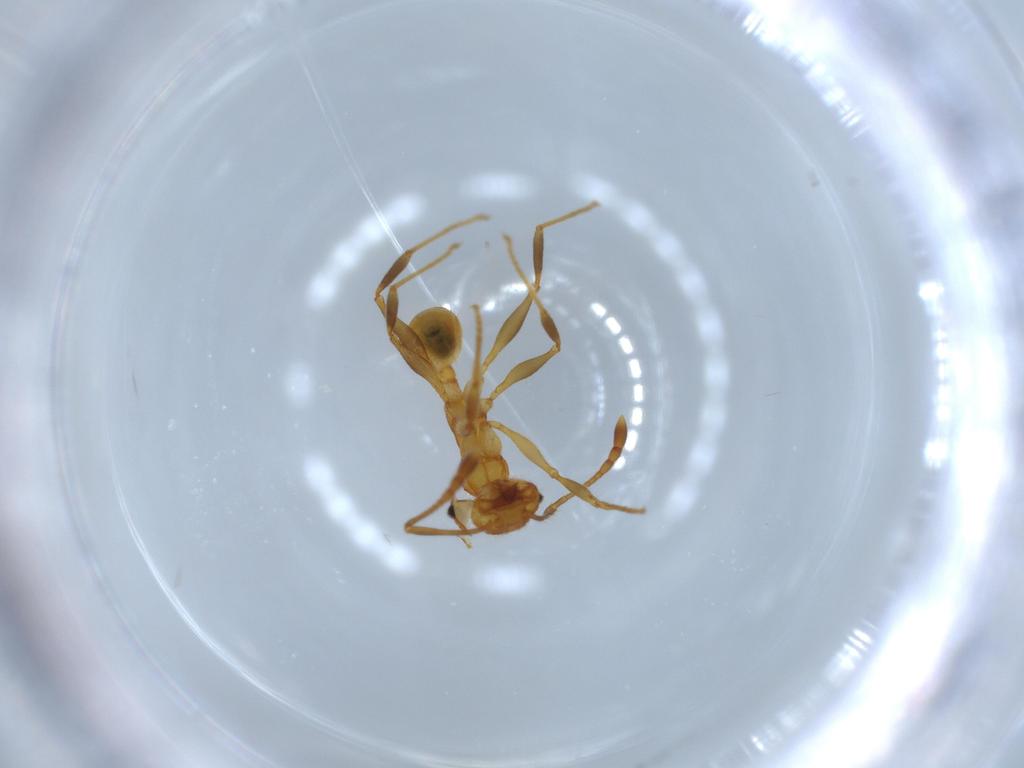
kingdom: Animalia
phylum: Arthropoda
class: Insecta
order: Hymenoptera
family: Formicidae
